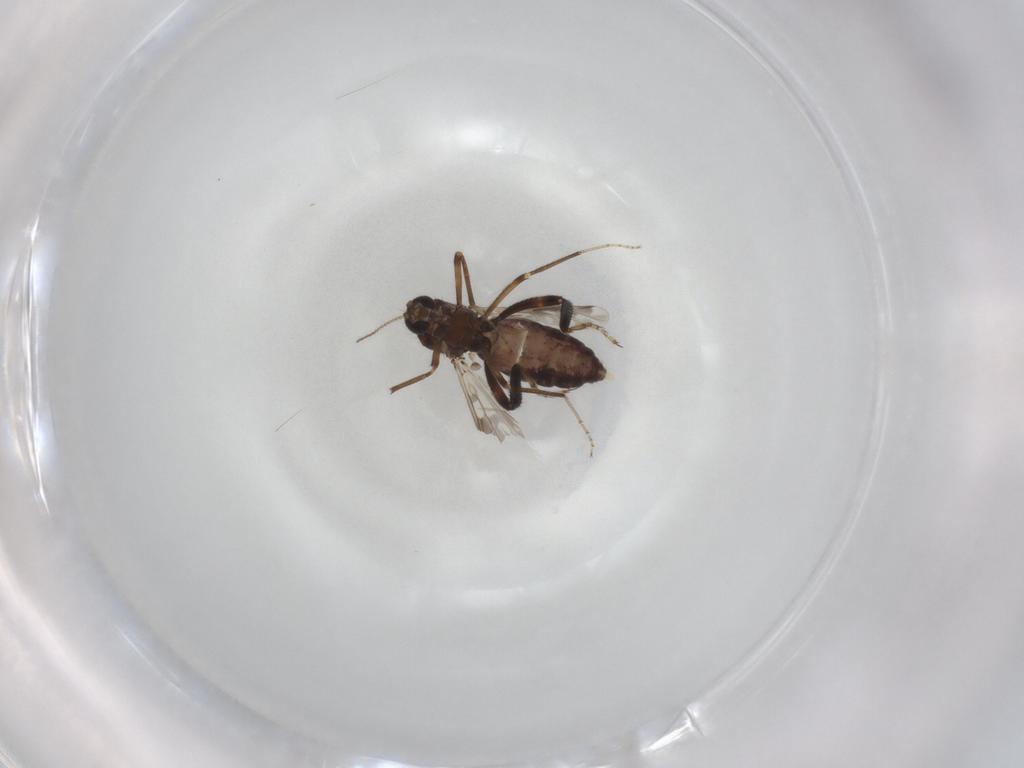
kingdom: Animalia
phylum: Arthropoda
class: Insecta
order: Diptera
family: Ceratopogonidae
